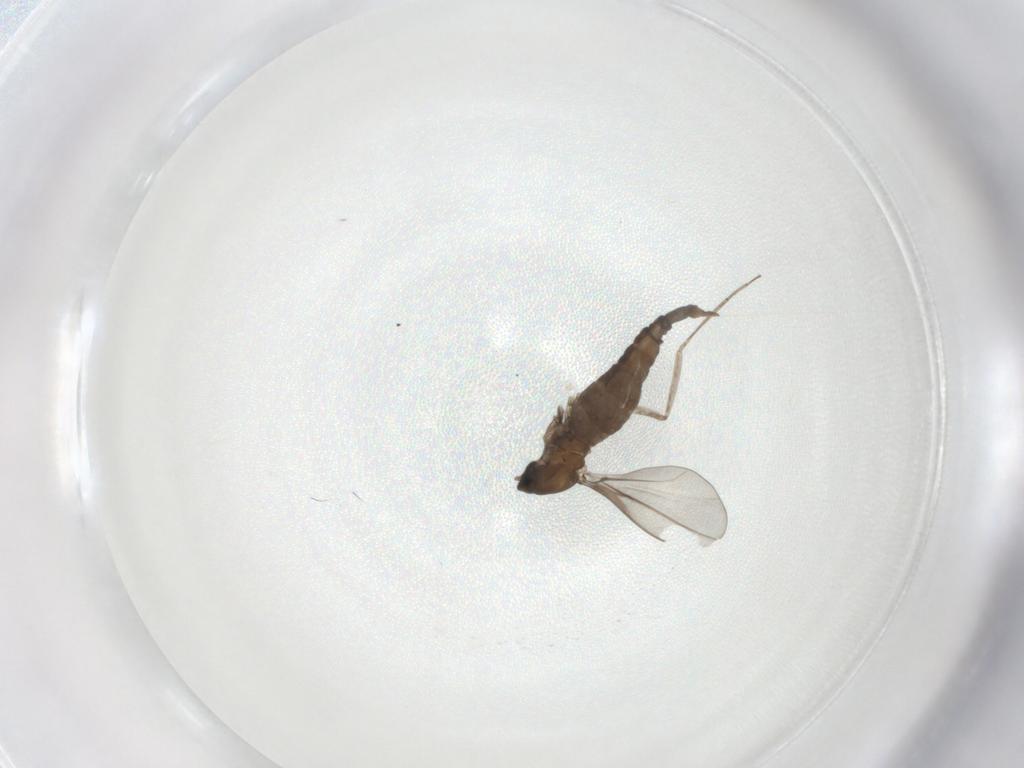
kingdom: Animalia
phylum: Arthropoda
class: Insecta
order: Diptera
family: Cecidomyiidae
